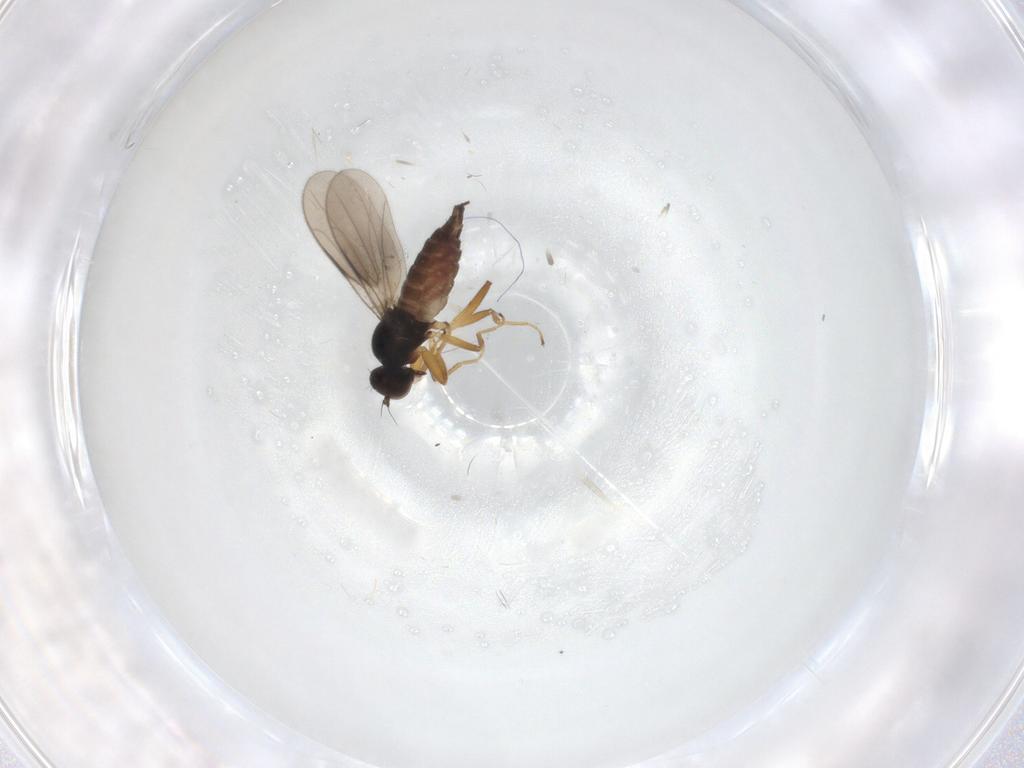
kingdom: Animalia
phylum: Arthropoda
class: Insecta
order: Diptera
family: Hybotidae
